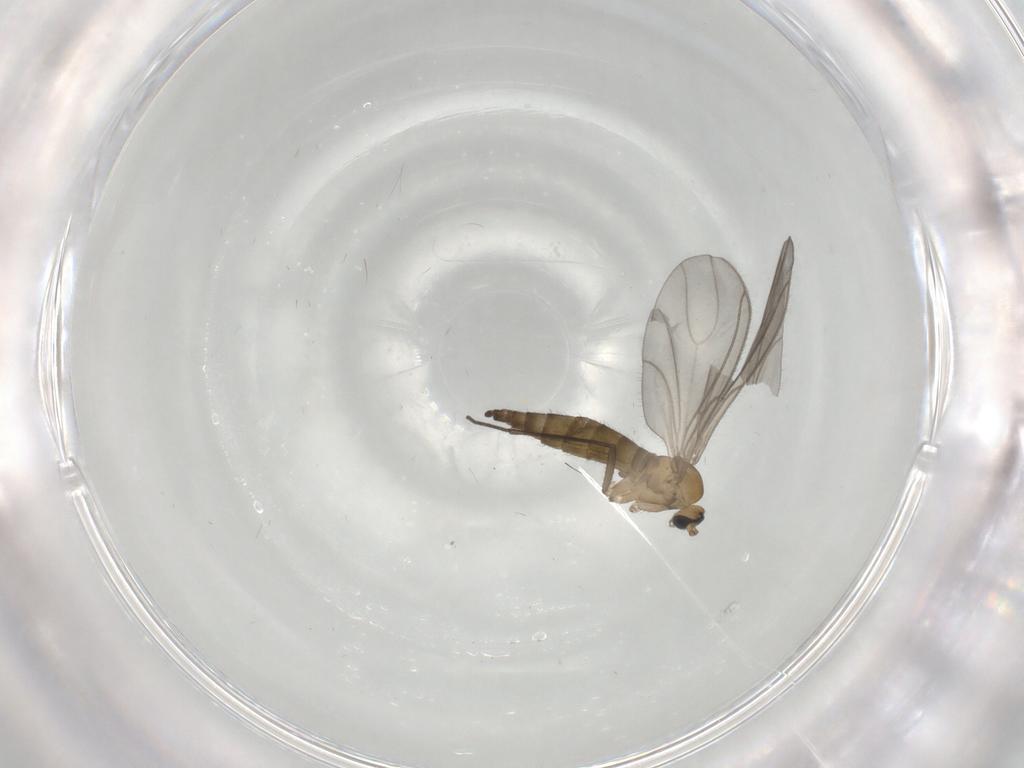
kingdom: Animalia
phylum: Arthropoda
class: Insecta
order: Diptera
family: Sciaridae
